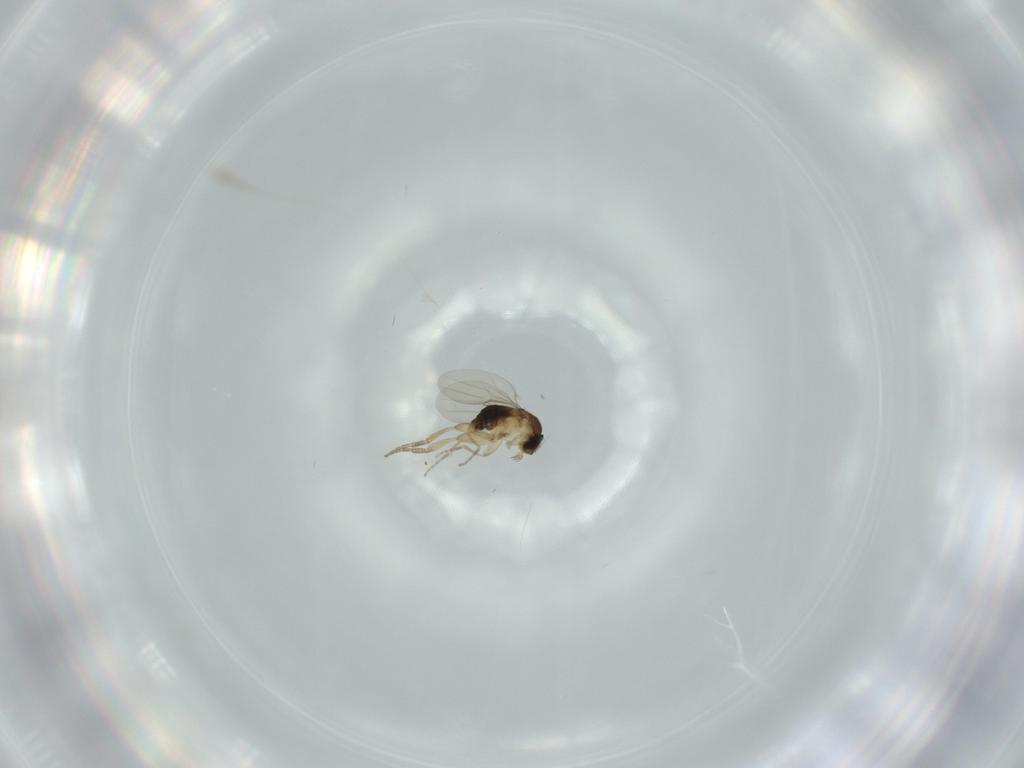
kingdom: Animalia
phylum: Arthropoda
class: Insecta
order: Diptera
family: Phoridae
